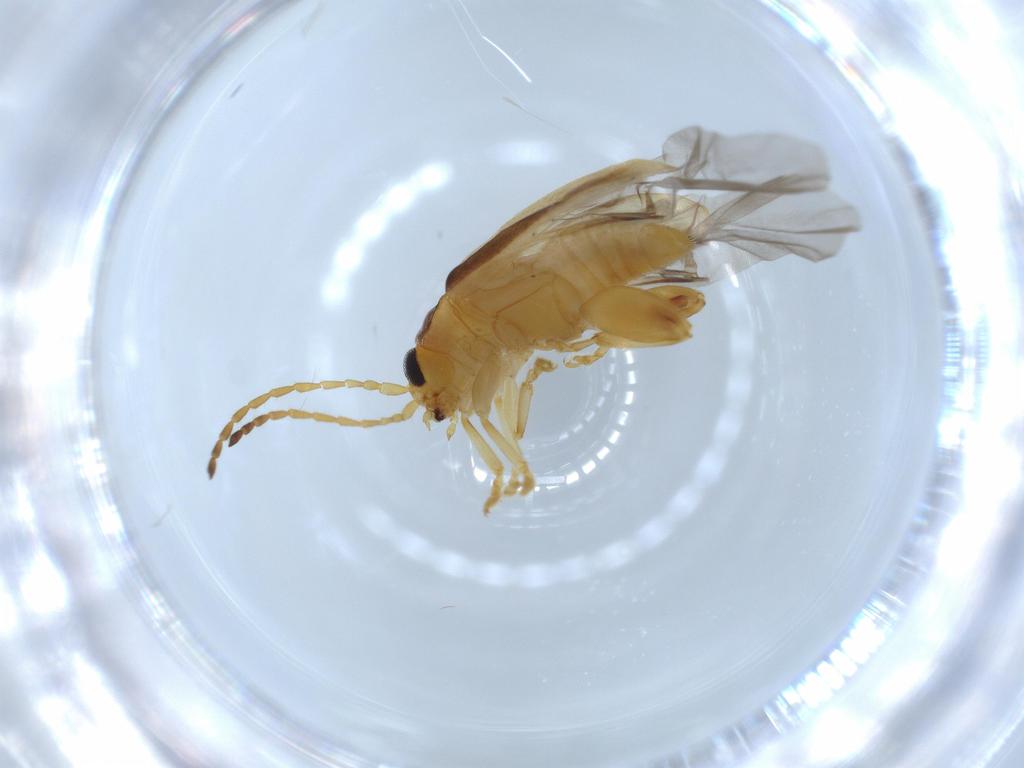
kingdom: Animalia
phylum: Arthropoda
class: Insecta
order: Coleoptera
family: Chrysomelidae
